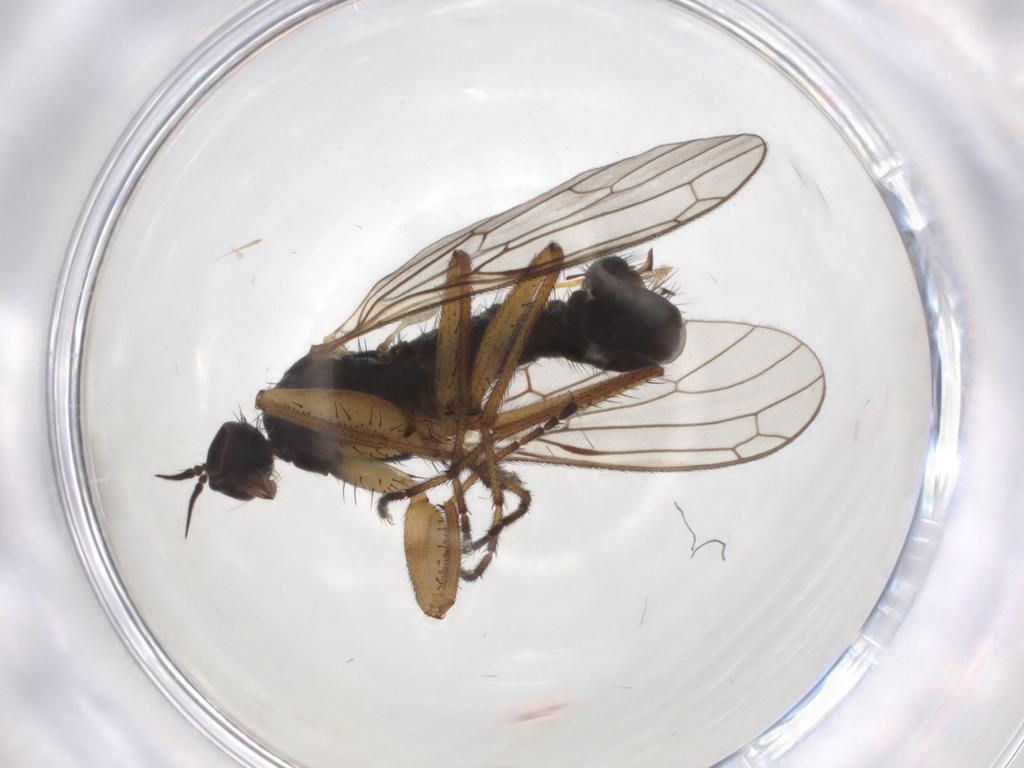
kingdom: Animalia
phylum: Arthropoda
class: Insecta
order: Diptera
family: Chironomidae
